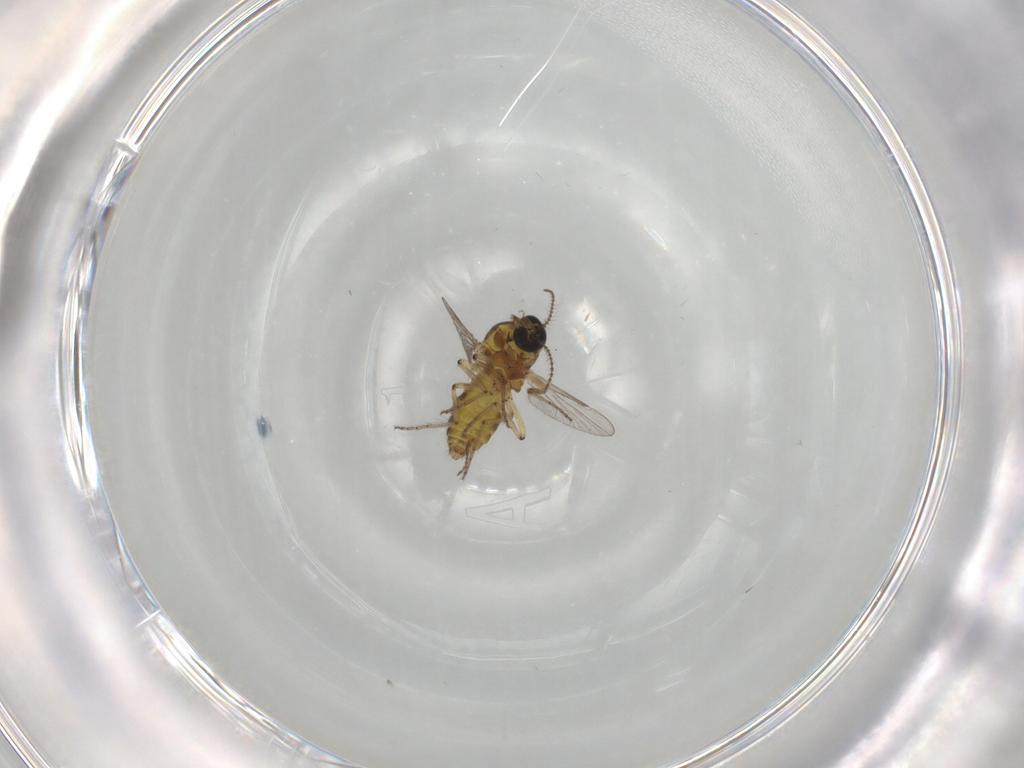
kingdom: Animalia
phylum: Arthropoda
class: Insecta
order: Diptera
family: Ceratopogonidae
